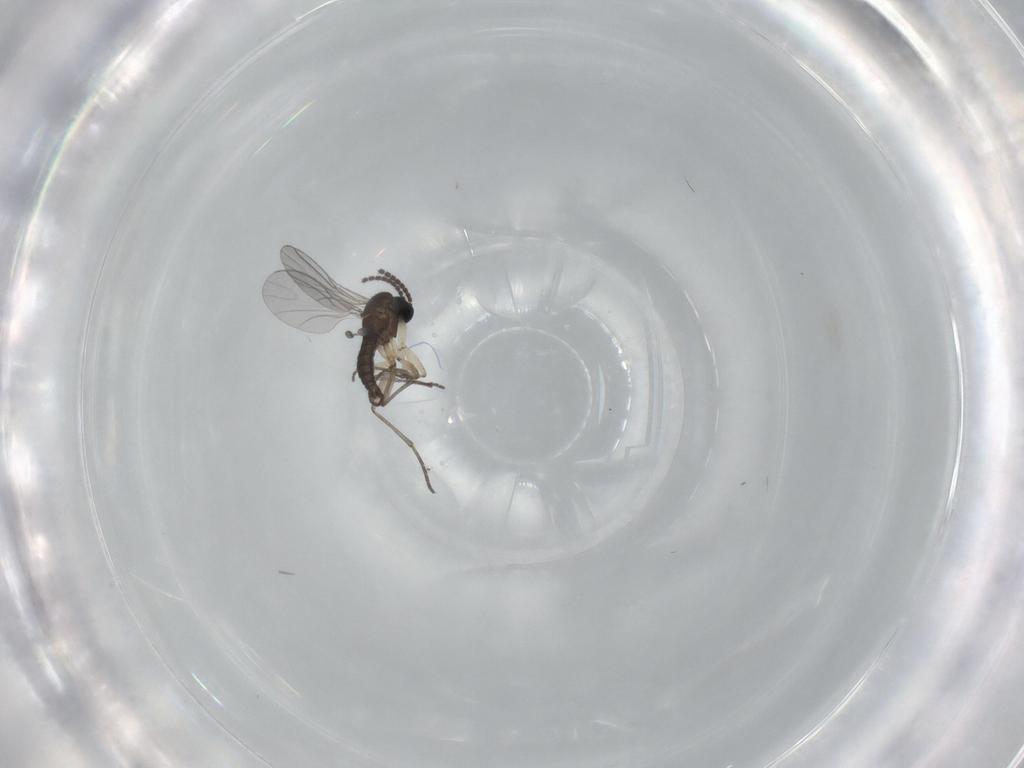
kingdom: Animalia
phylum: Arthropoda
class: Insecta
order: Diptera
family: Sciaridae
